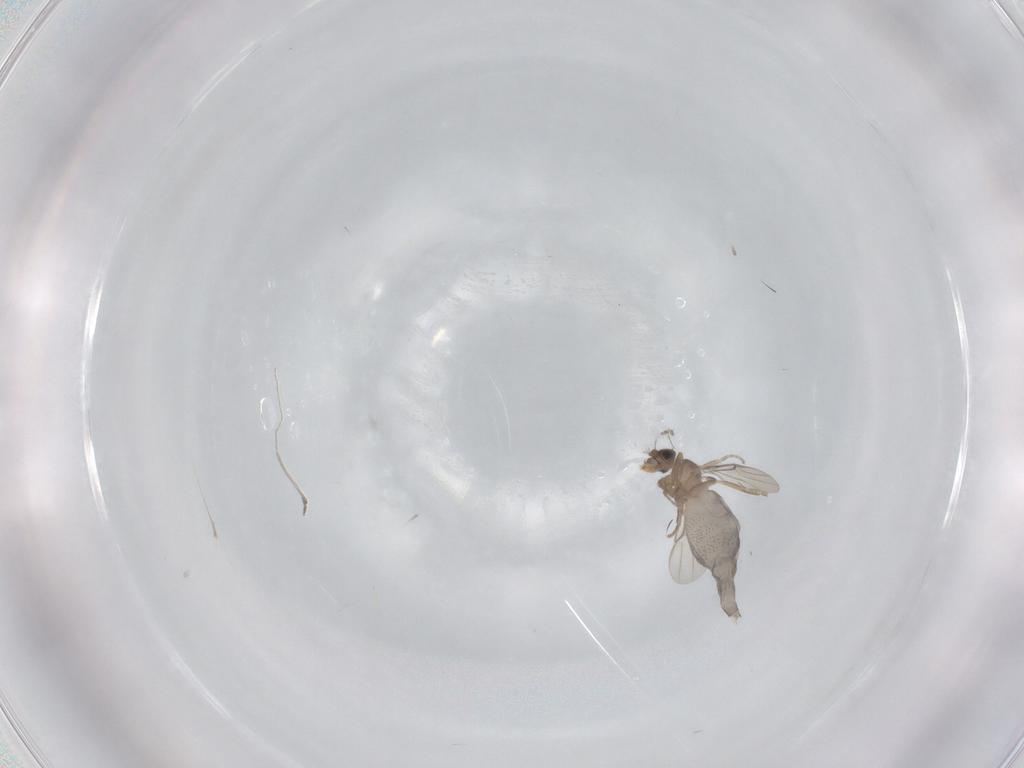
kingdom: Animalia
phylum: Arthropoda
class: Insecta
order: Diptera
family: Phoridae
